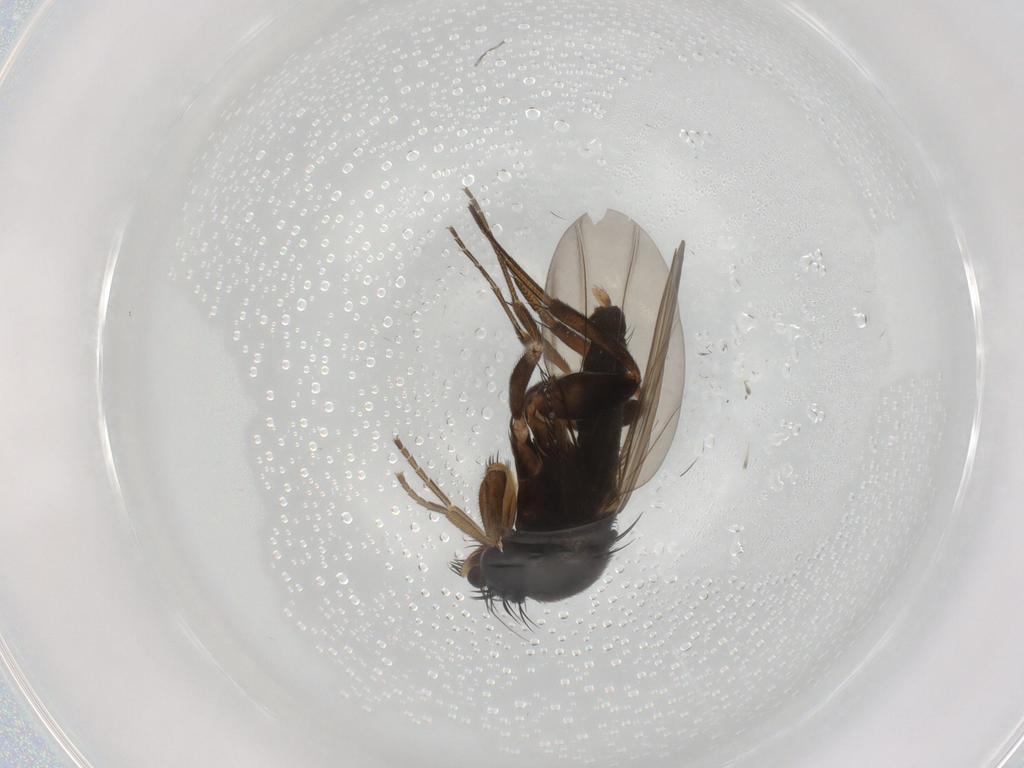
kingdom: Animalia
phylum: Arthropoda
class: Insecta
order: Diptera
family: Phoridae
